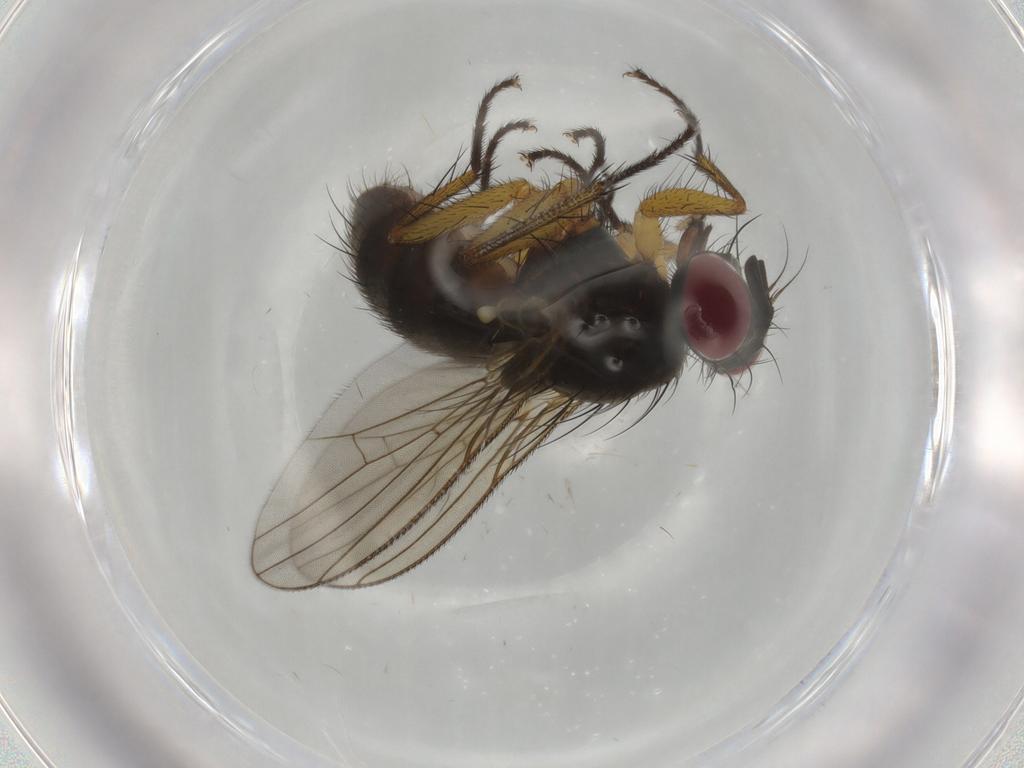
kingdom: Animalia
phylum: Arthropoda
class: Insecta
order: Diptera
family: Muscidae
